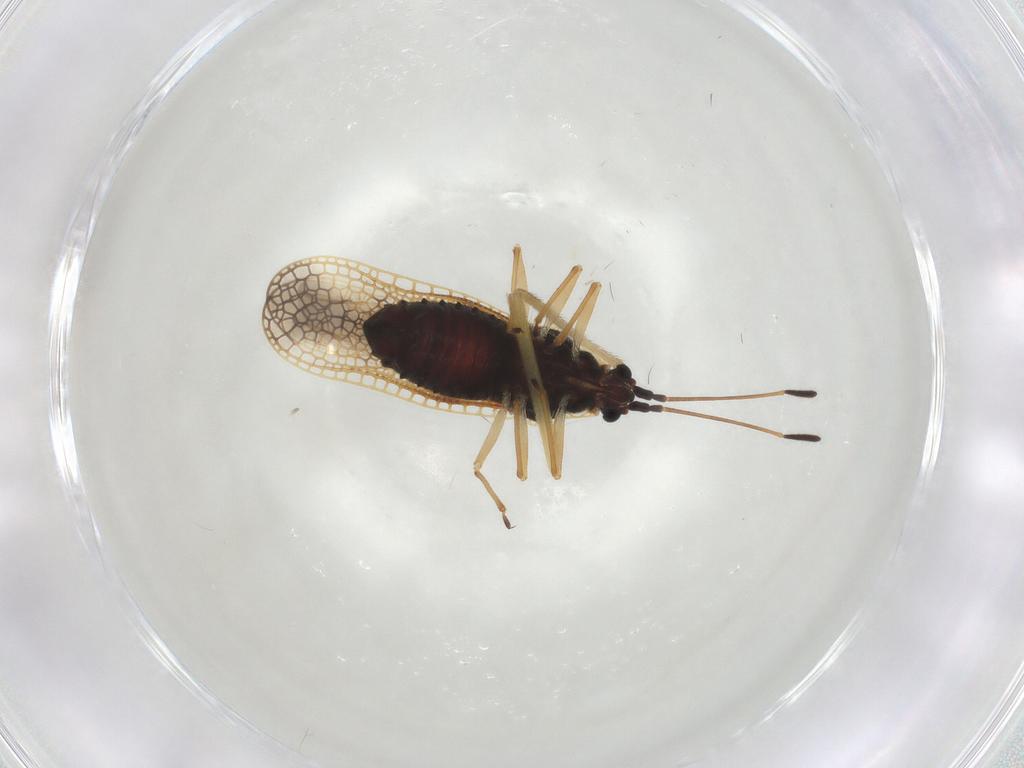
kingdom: Animalia
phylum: Arthropoda
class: Insecta
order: Hemiptera
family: Tingidae
